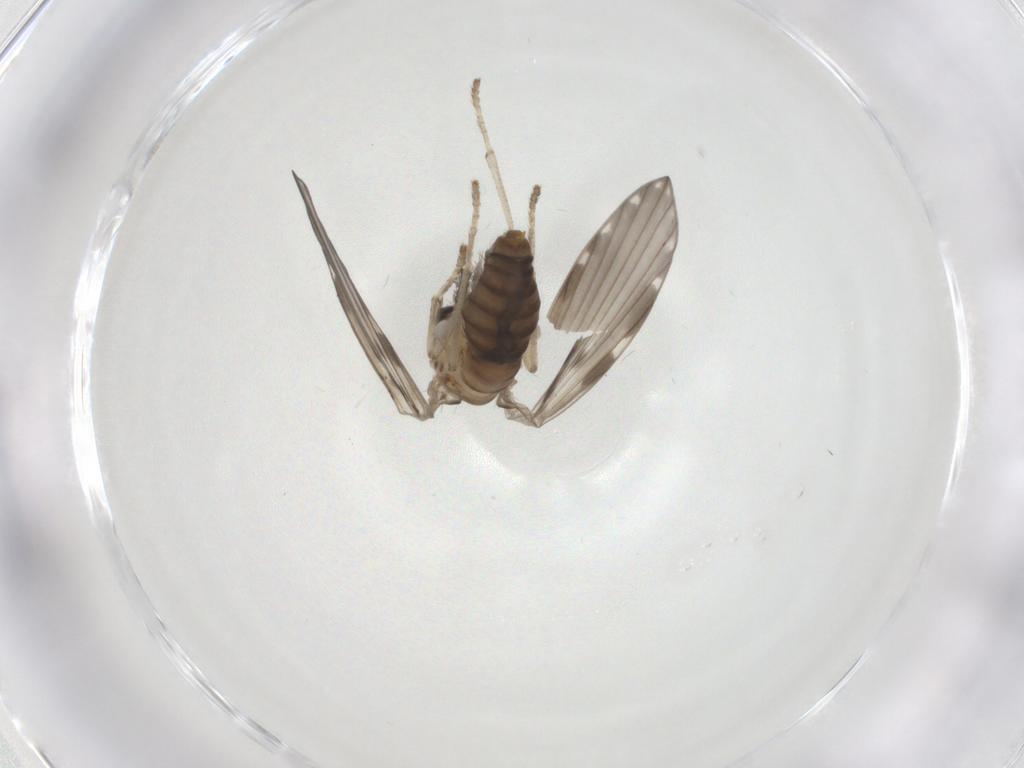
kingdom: Animalia
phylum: Arthropoda
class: Insecta
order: Diptera
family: Psychodidae
